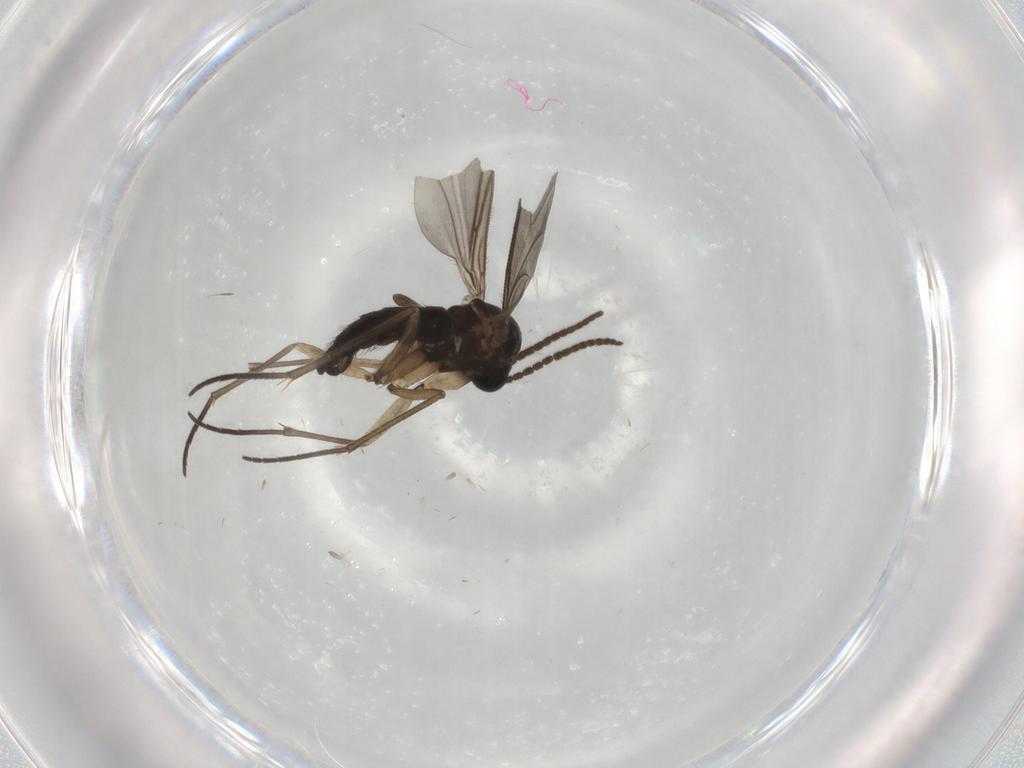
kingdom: Animalia
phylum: Arthropoda
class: Insecta
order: Diptera
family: Sciaridae
